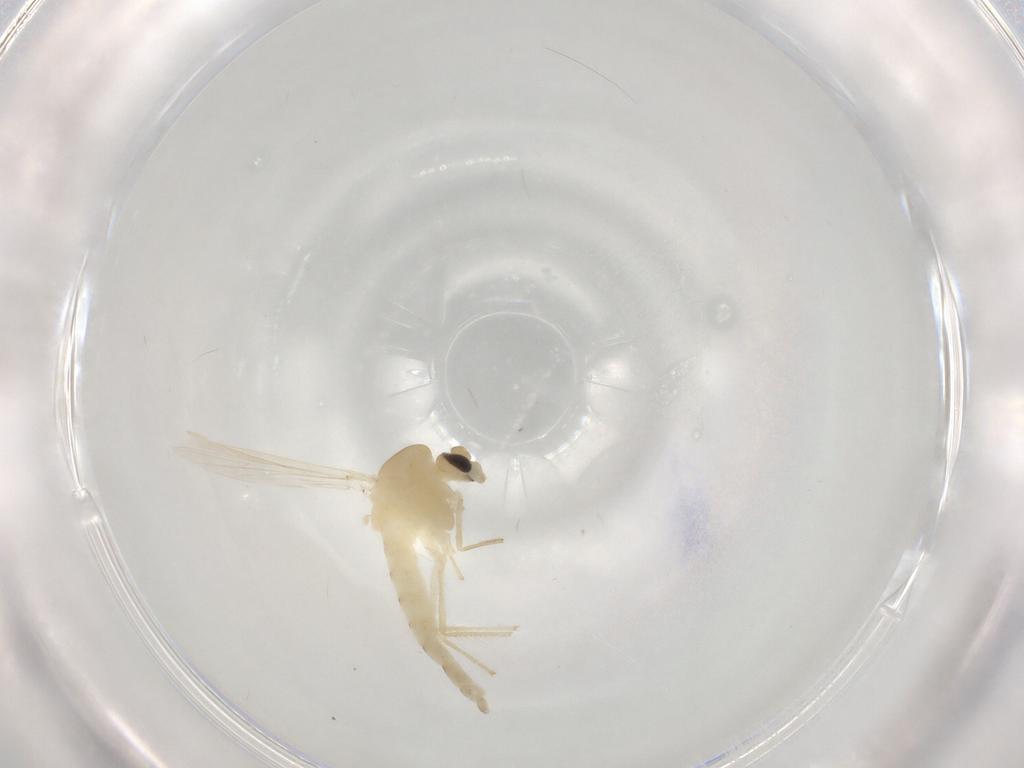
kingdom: Animalia
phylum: Arthropoda
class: Insecta
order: Diptera
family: Chironomidae
